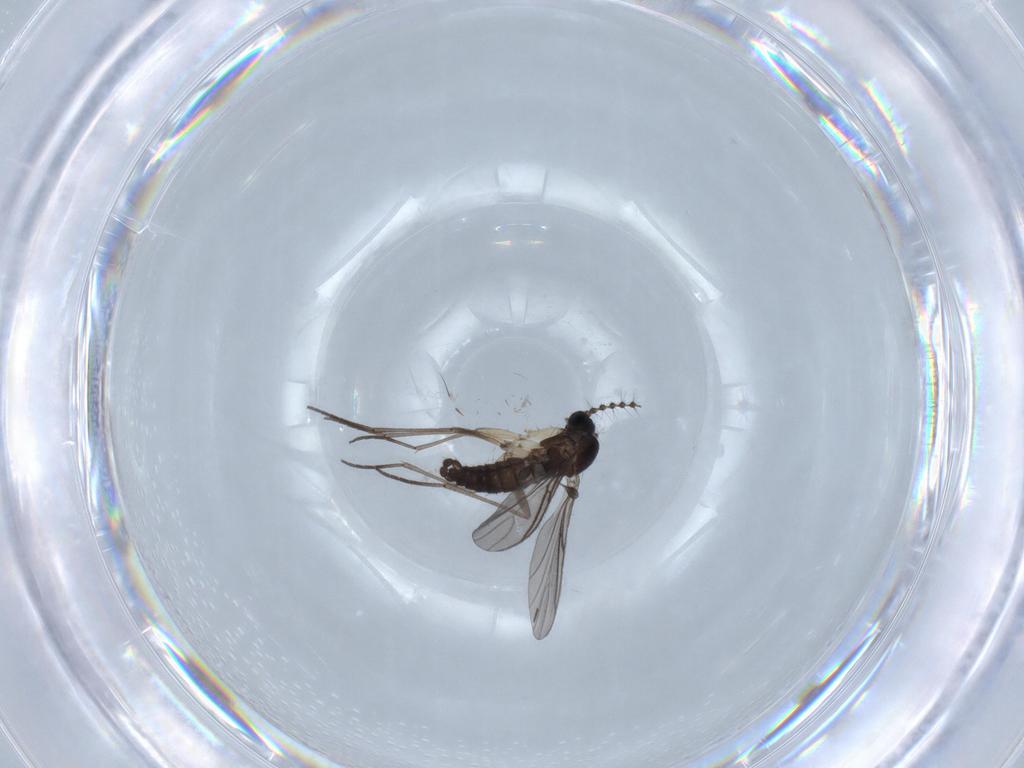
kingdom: Animalia
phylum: Arthropoda
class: Insecta
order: Diptera
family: Sciaridae
